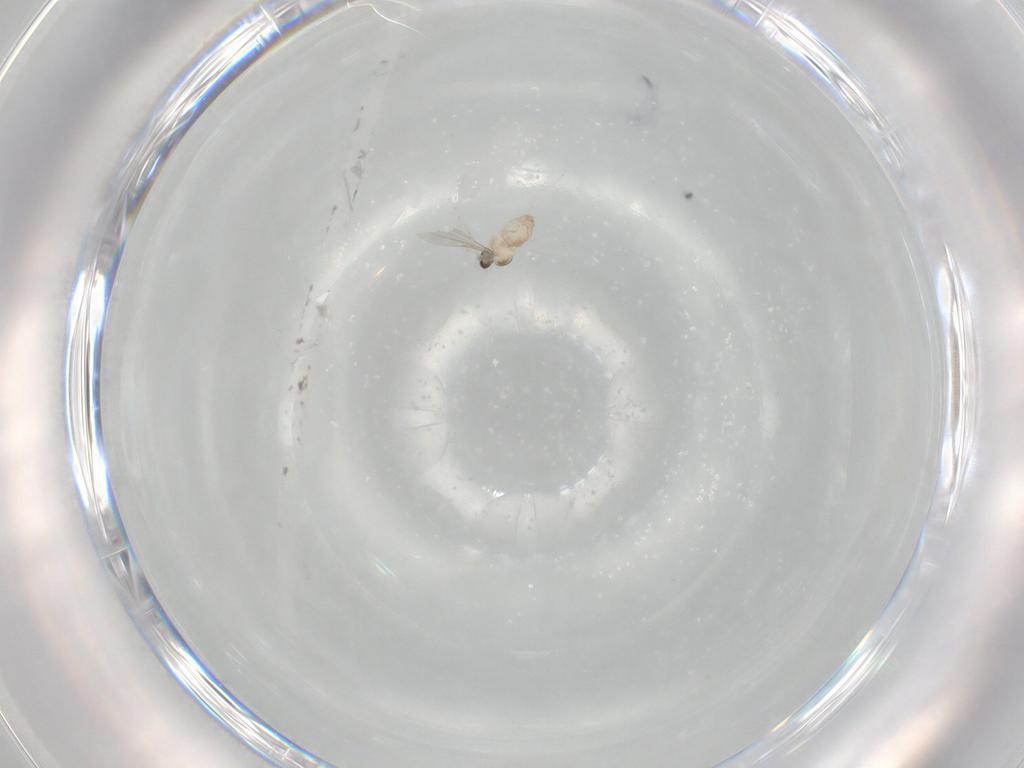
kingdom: Animalia
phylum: Arthropoda
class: Insecta
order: Diptera
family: Cecidomyiidae
